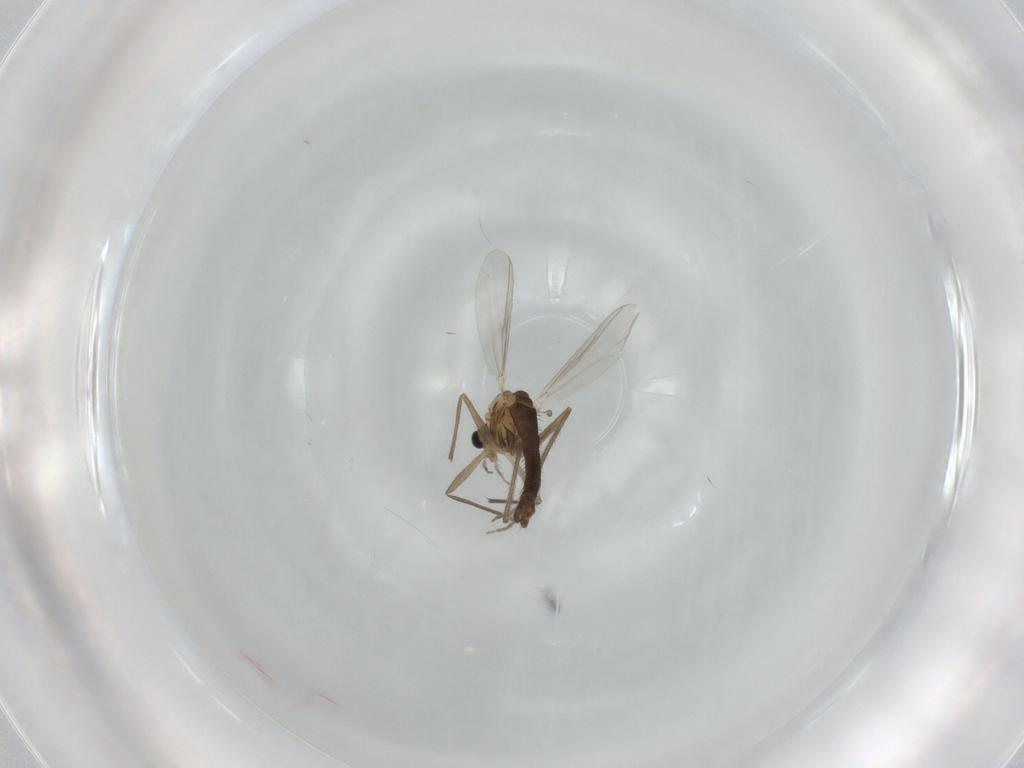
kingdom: Animalia
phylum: Arthropoda
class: Insecta
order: Diptera
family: Chironomidae
